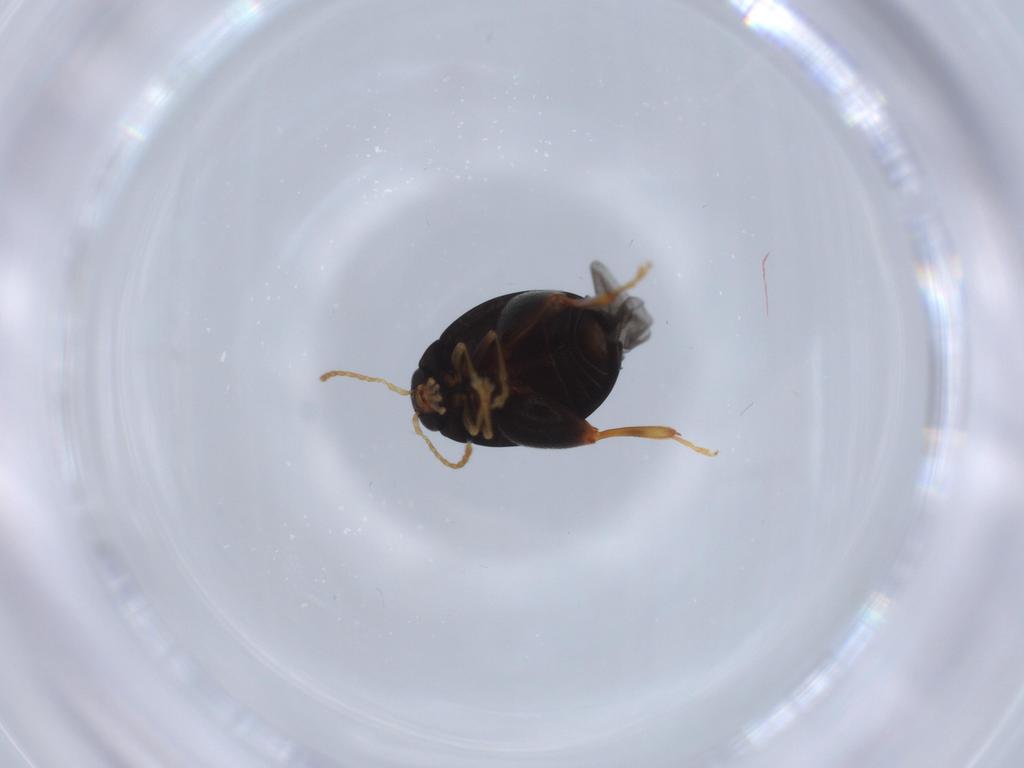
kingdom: Animalia
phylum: Arthropoda
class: Insecta
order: Coleoptera
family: Chrysomelidae
